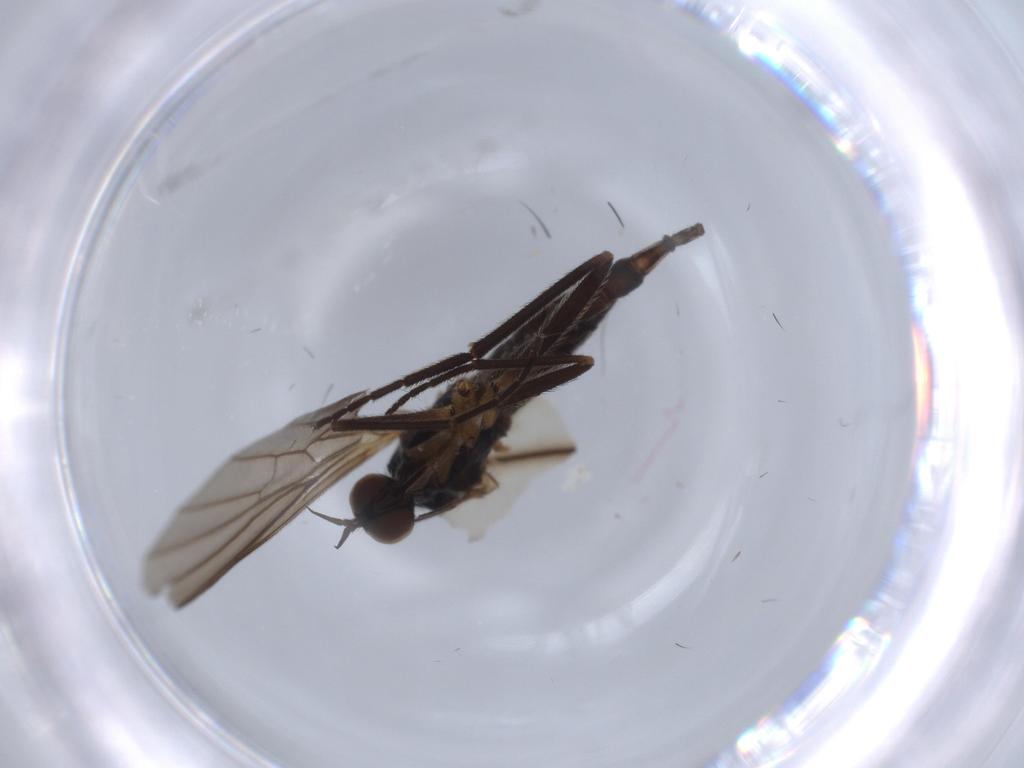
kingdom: Animalia
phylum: Arthropoda
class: Insecta
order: Diptera
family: Empididae
